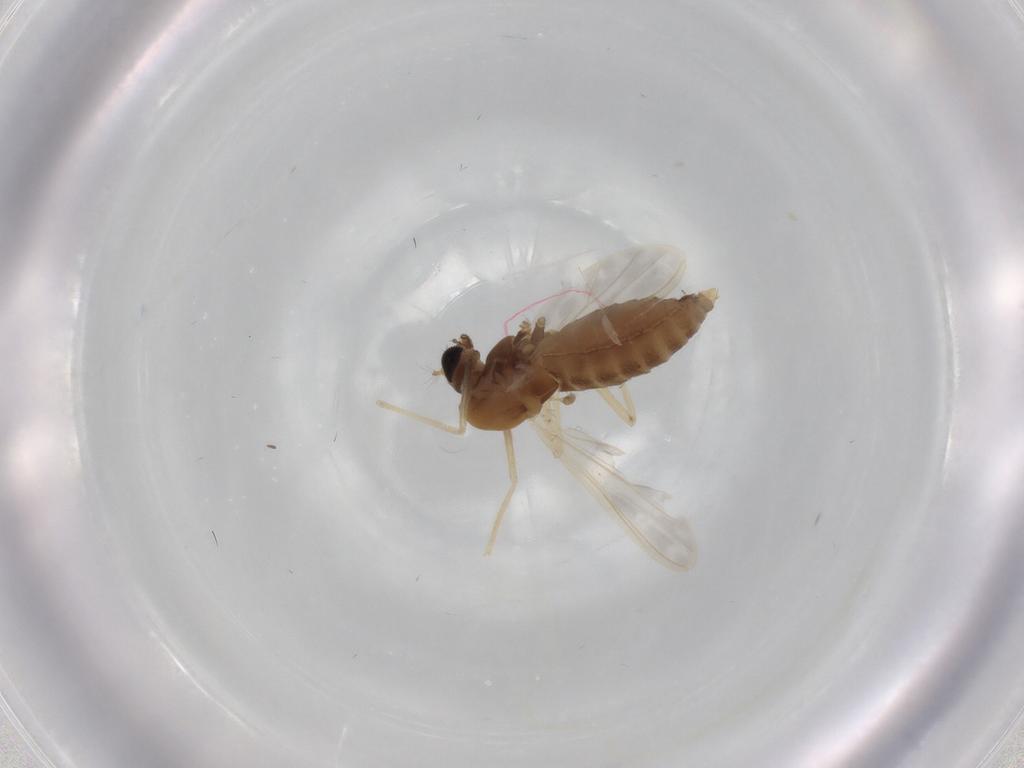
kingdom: Animalia
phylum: Arthropoda
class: Insecta
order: Diptera
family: Chironomidae
